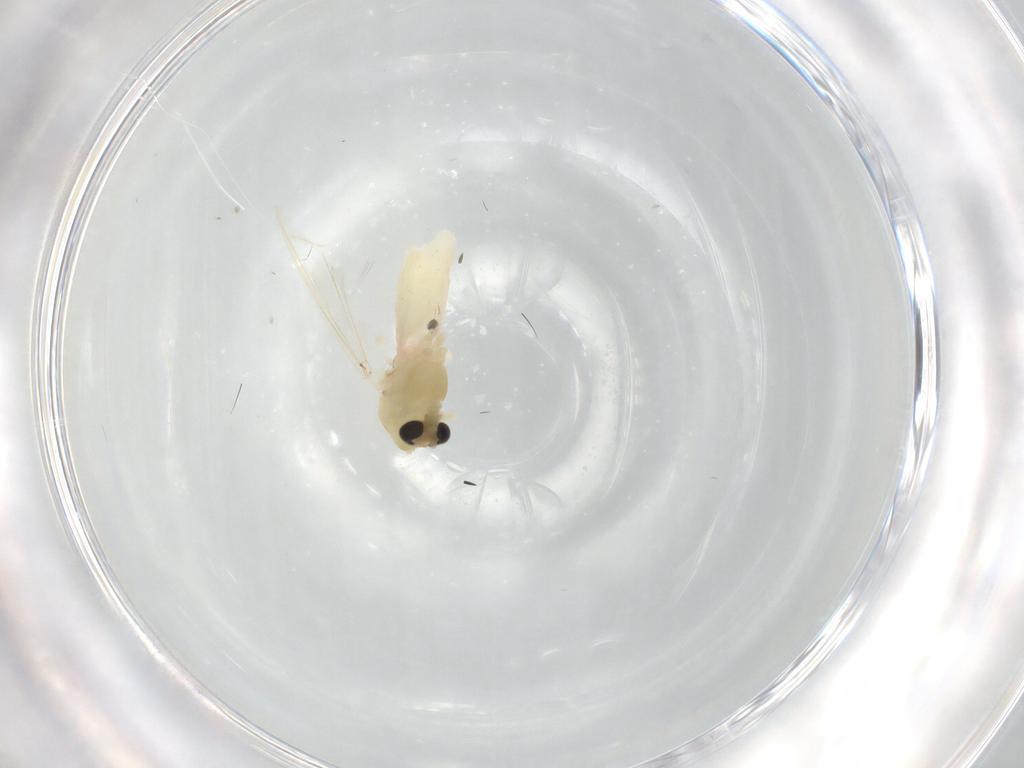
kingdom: Animalia
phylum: Arthropoda
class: Insecta
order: Diptera
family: Chironomidae
